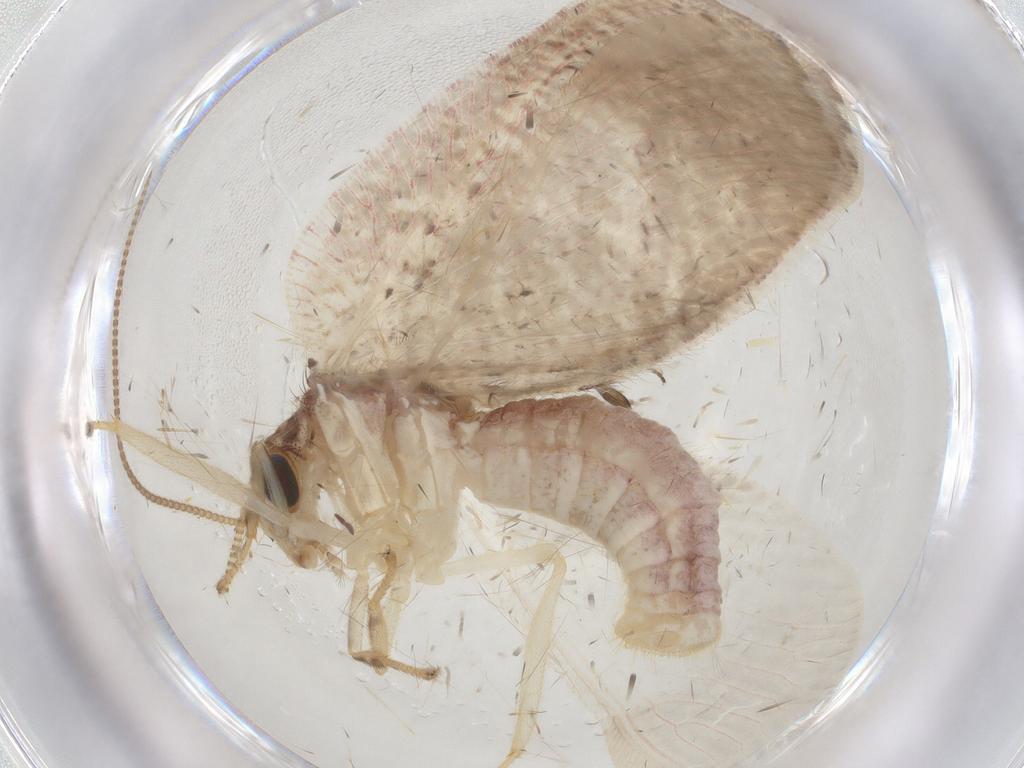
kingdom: Animalia
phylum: Arthropoda
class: Insecta
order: Neuroptera
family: Hemerobiidae
